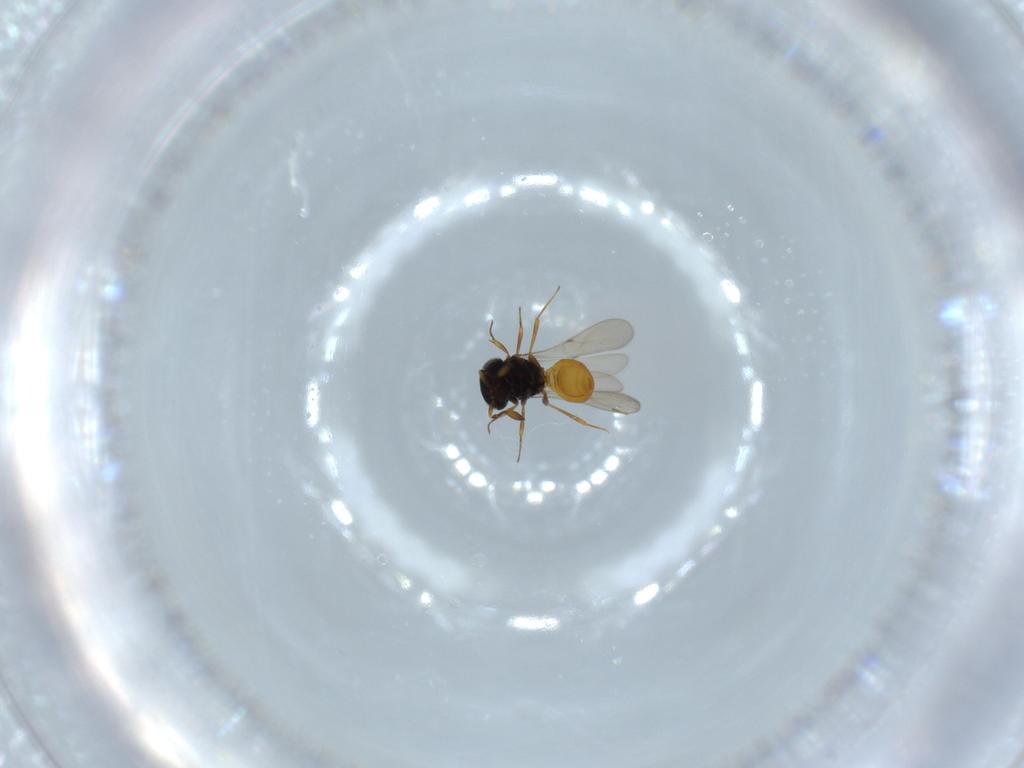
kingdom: Animalia
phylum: Arthropoda
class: Insecta
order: Hymenoptera
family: Scelionidae
